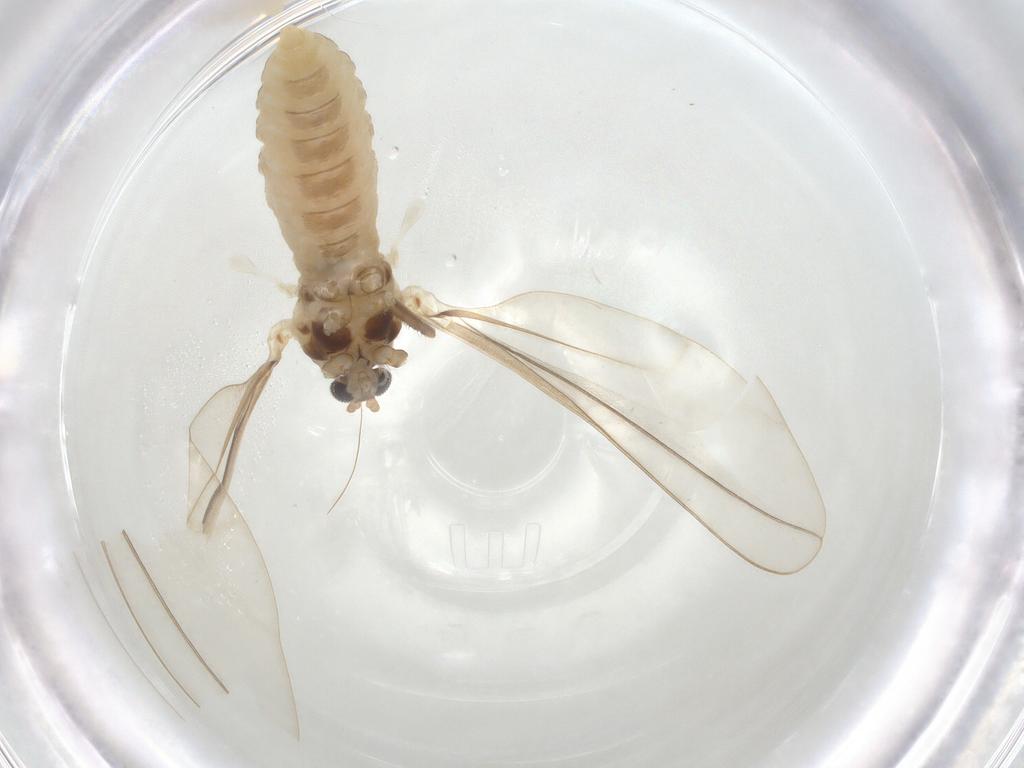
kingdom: Animalia
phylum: Arthropoda
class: Insecta
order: Diptera
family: Cecidomyiidae
